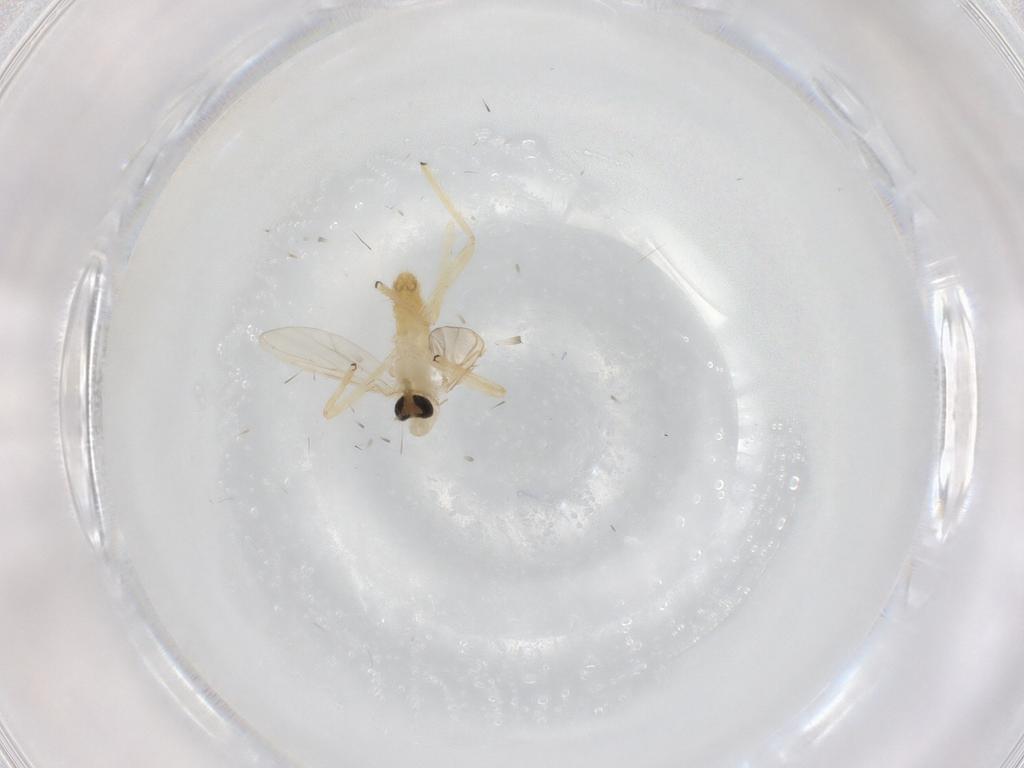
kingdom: Animalia
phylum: Arthropoda
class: Insecta
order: Diptera
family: Chironomidae
